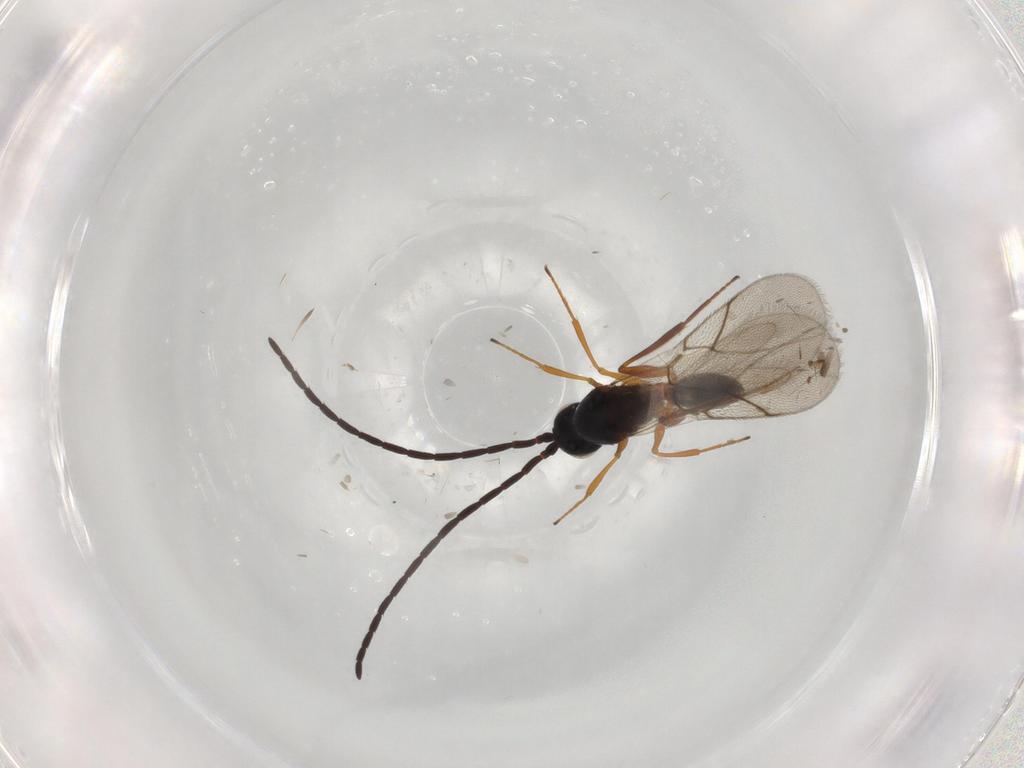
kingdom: Animalia
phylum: Arthropoda
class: Insecta
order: Hymenoptera
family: Figitidae
